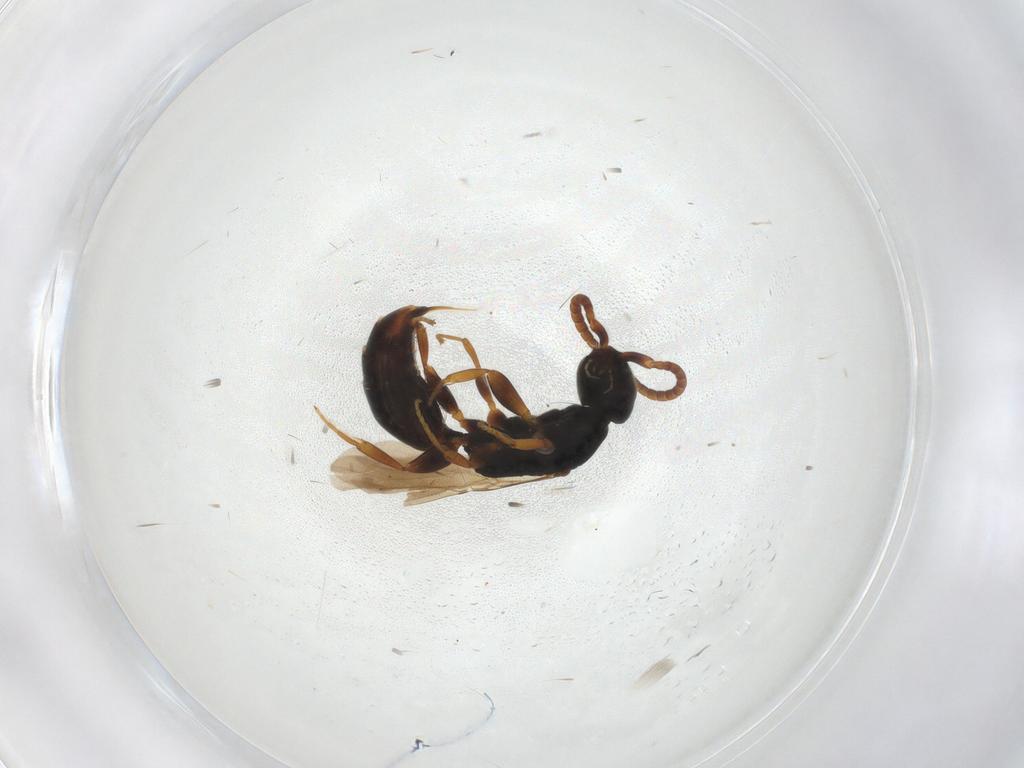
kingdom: Animalia
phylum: Arthropoda
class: Insecta
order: Hymenoptera
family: Bethylidae
